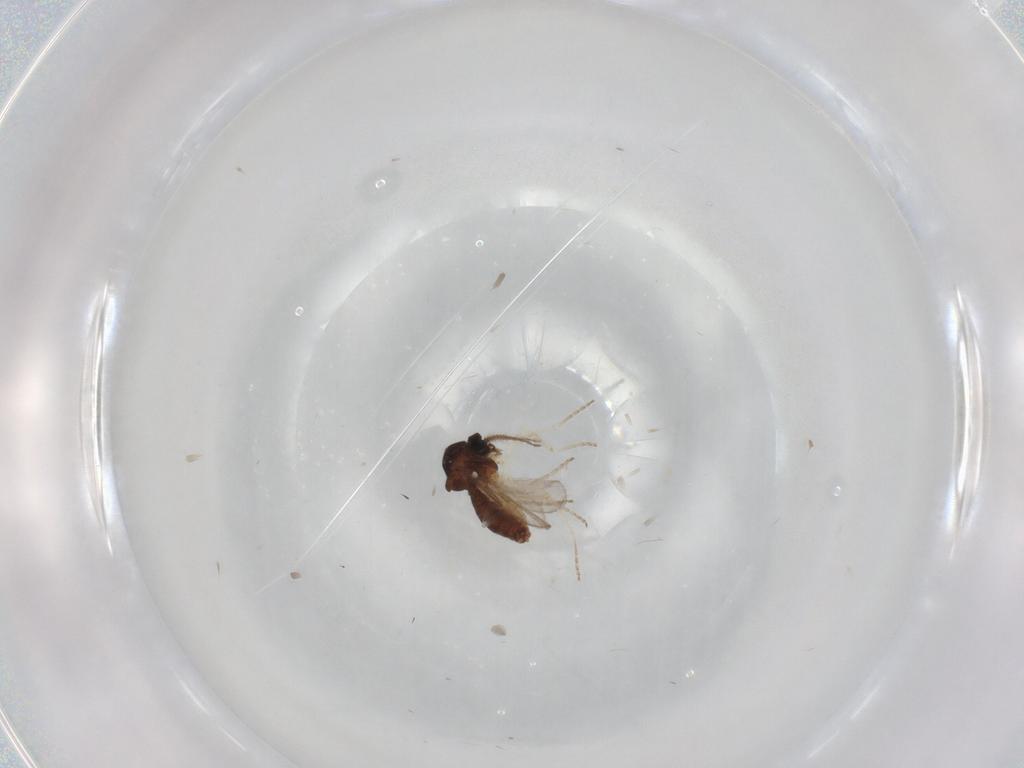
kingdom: Animalia
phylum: Arthropoda
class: Insecta
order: Diptera
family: Ceratopogonidae
